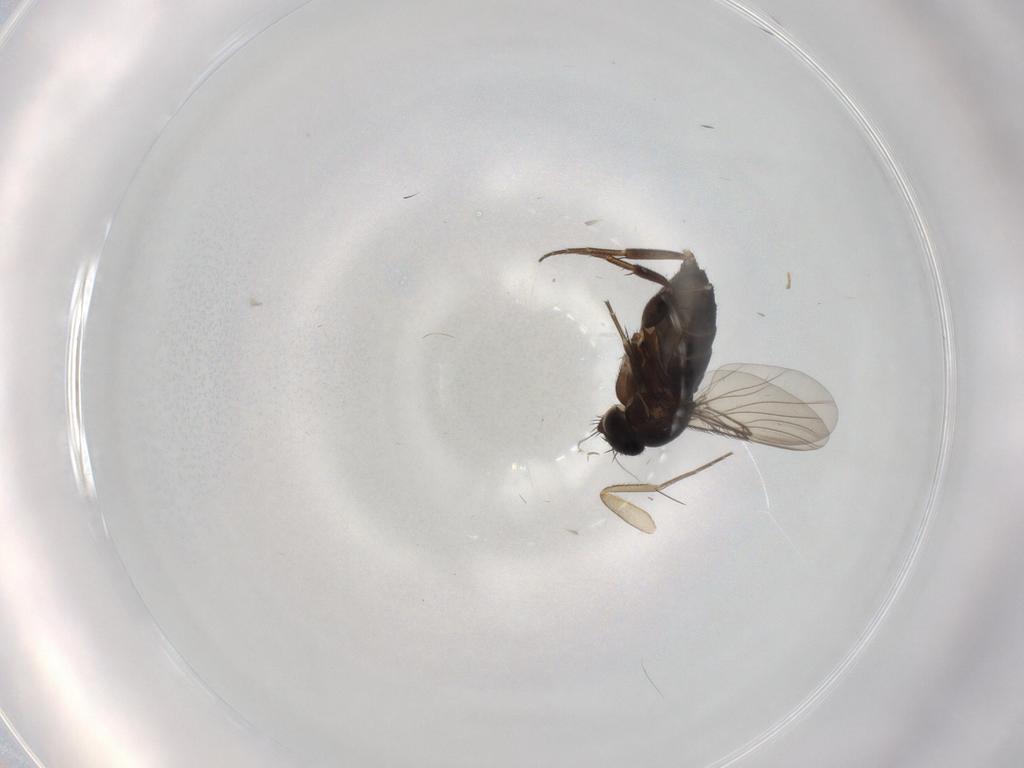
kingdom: Animalia
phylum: Arthropoda
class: Insecta
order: Diptera
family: Phoridae
